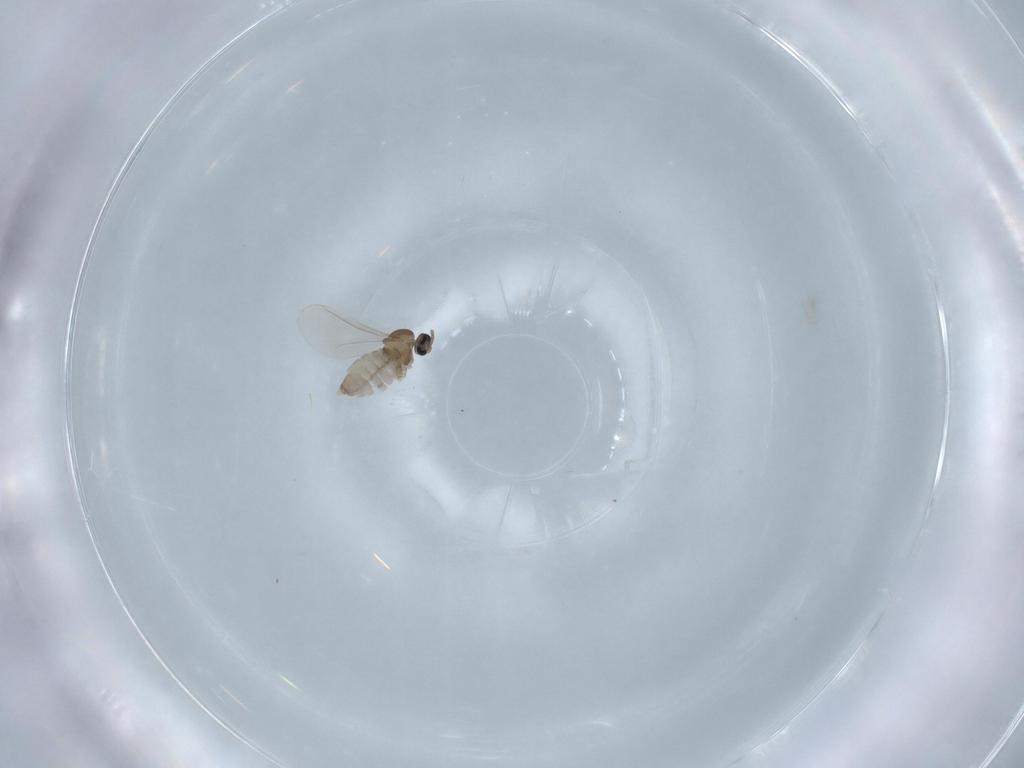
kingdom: Animalia
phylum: Arthropoda
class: Insecta
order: Diptera
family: Cecidomyiidae
